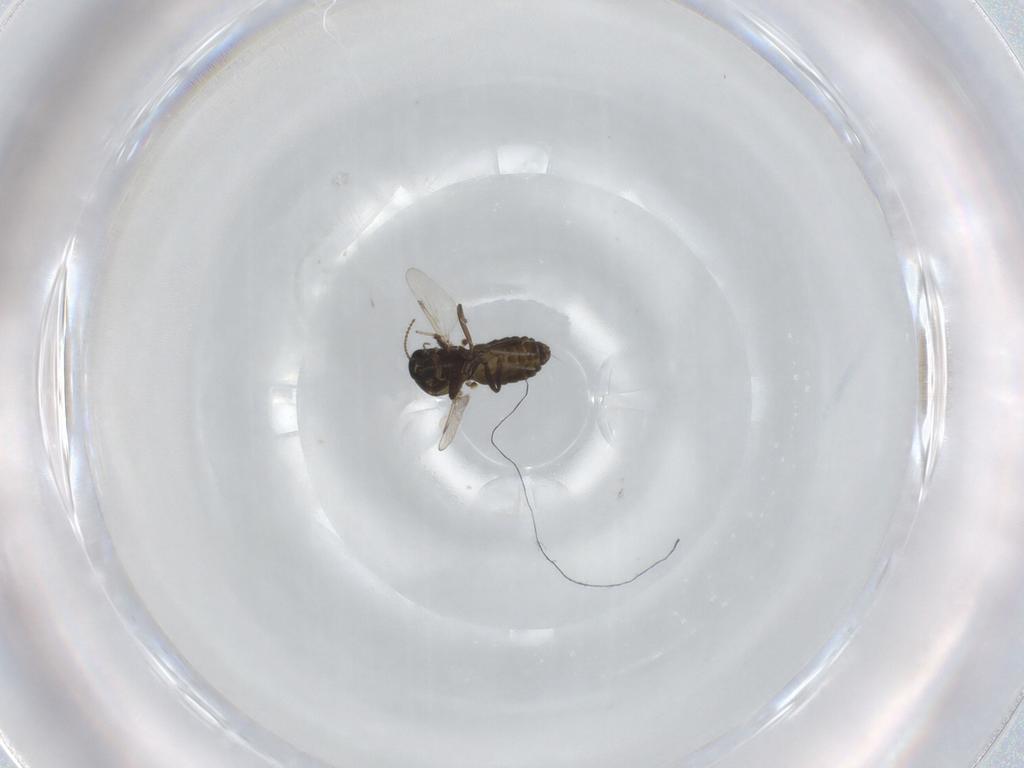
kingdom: Animalia
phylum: Arthropoda
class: Insecta
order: Diptera
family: Ceratopogonidae
